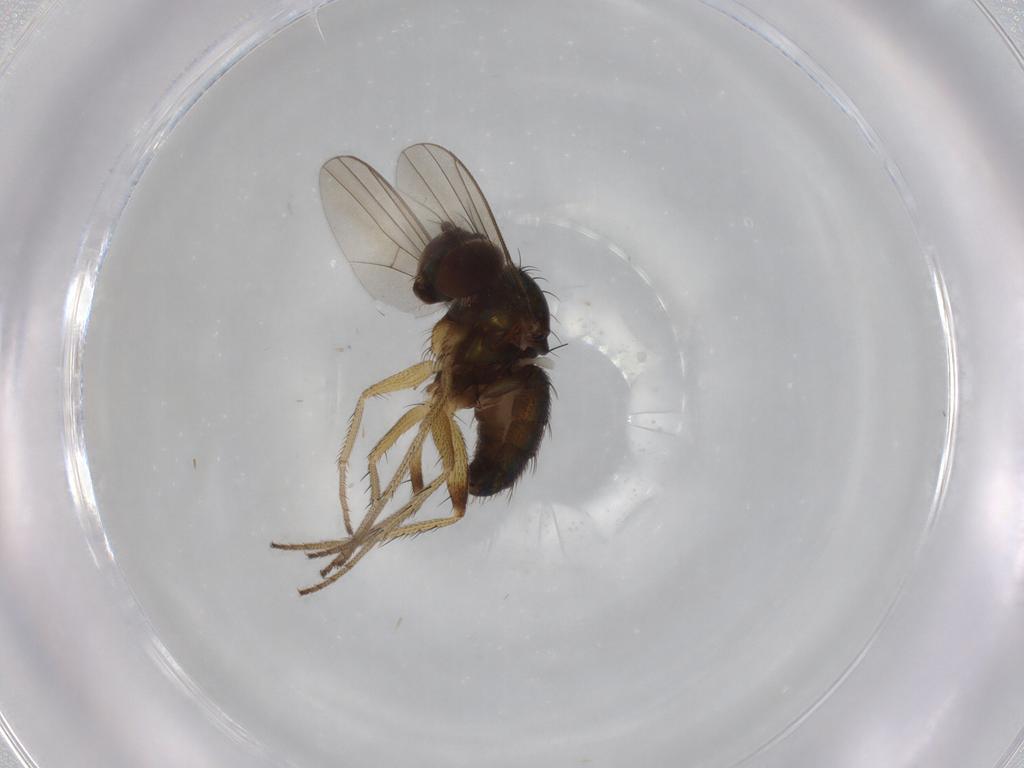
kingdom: Animalia
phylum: Arthropoda
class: Insecta
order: Diptera
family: Dolichopodidae
